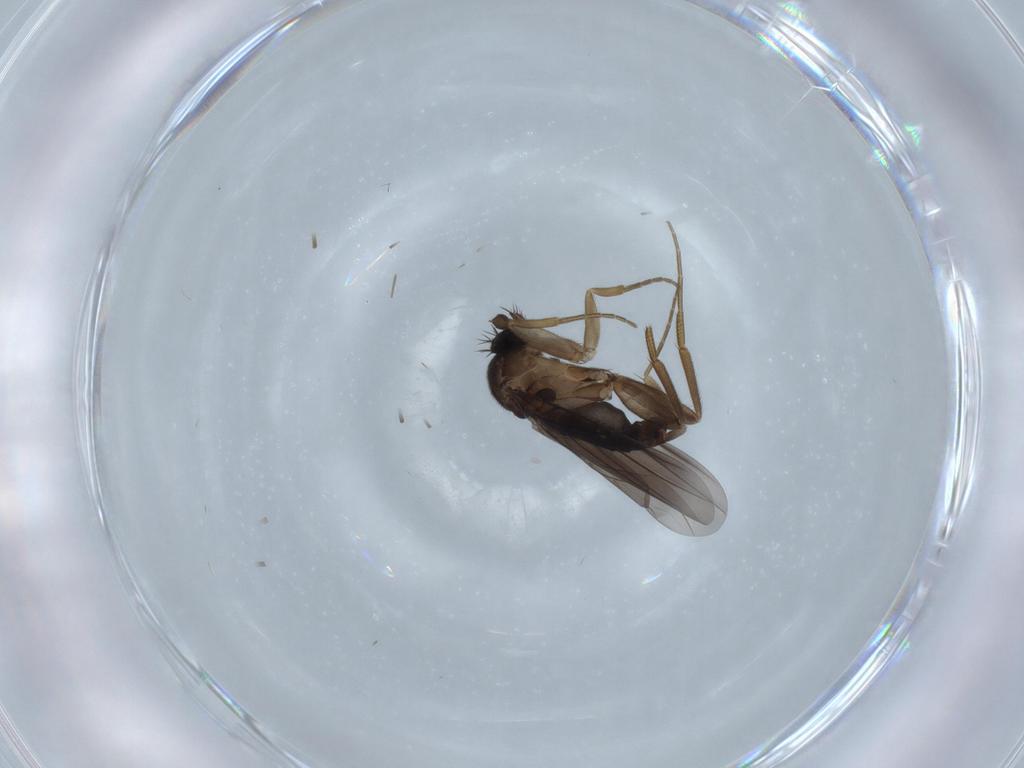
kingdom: Animalia
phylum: Arthropoda
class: Insecta
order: Diptera
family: Phoridae
